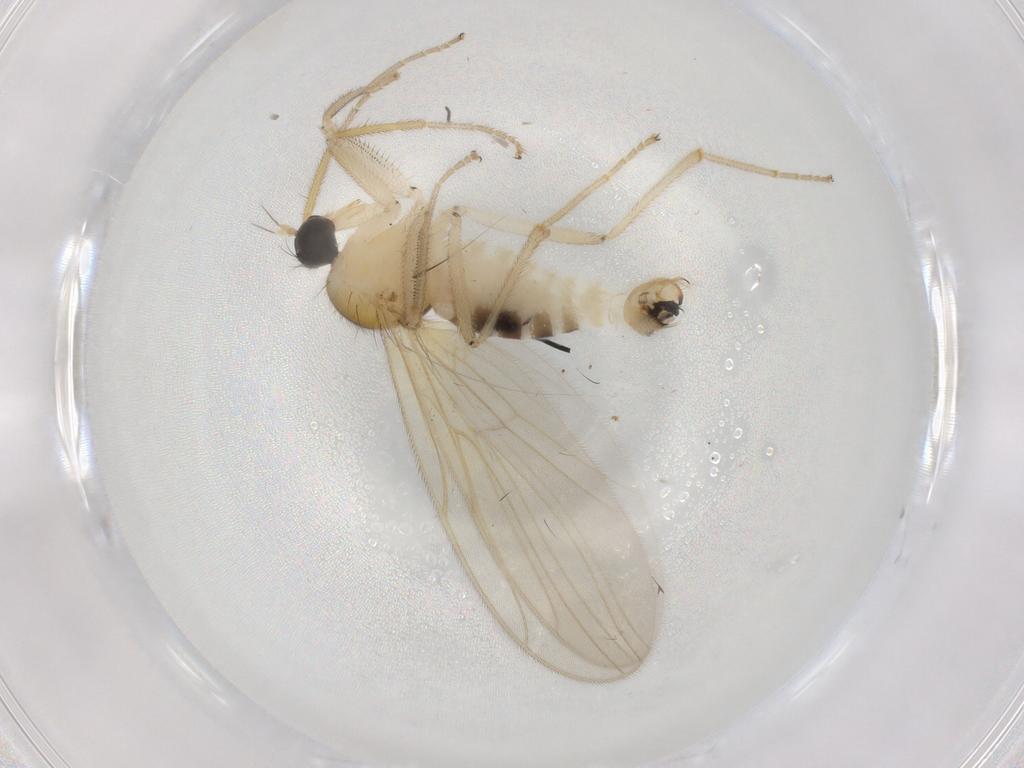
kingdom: Animalia
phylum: Arthropoda
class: Insecta
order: Diptera
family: Hybotidae
